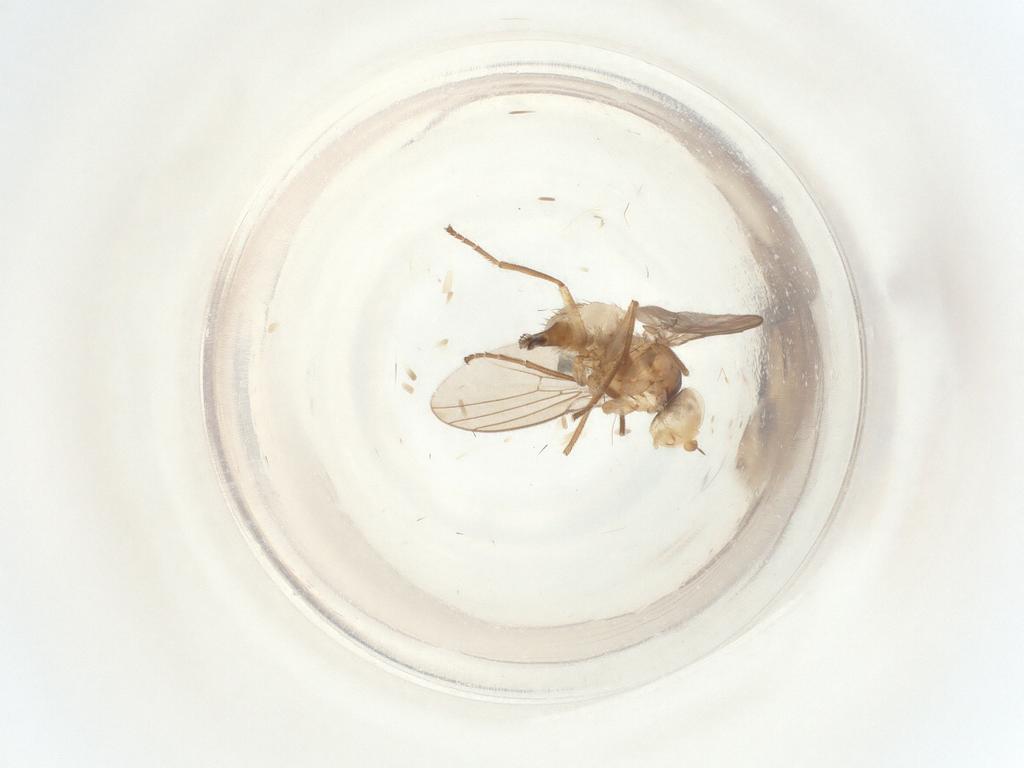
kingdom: Animalia
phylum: Arthropoda
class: Insecta
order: Diptera
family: Agromyzidae
